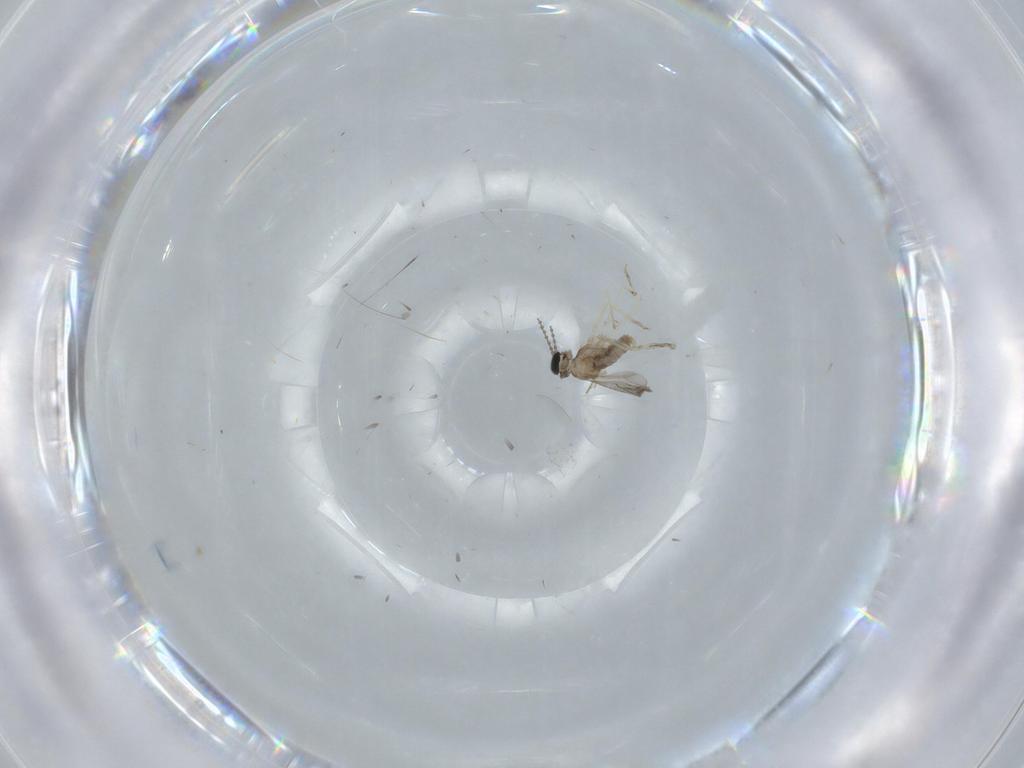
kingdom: Animalia
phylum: Arthropoda
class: Insecta
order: Diptera
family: Cecidomyiidae
